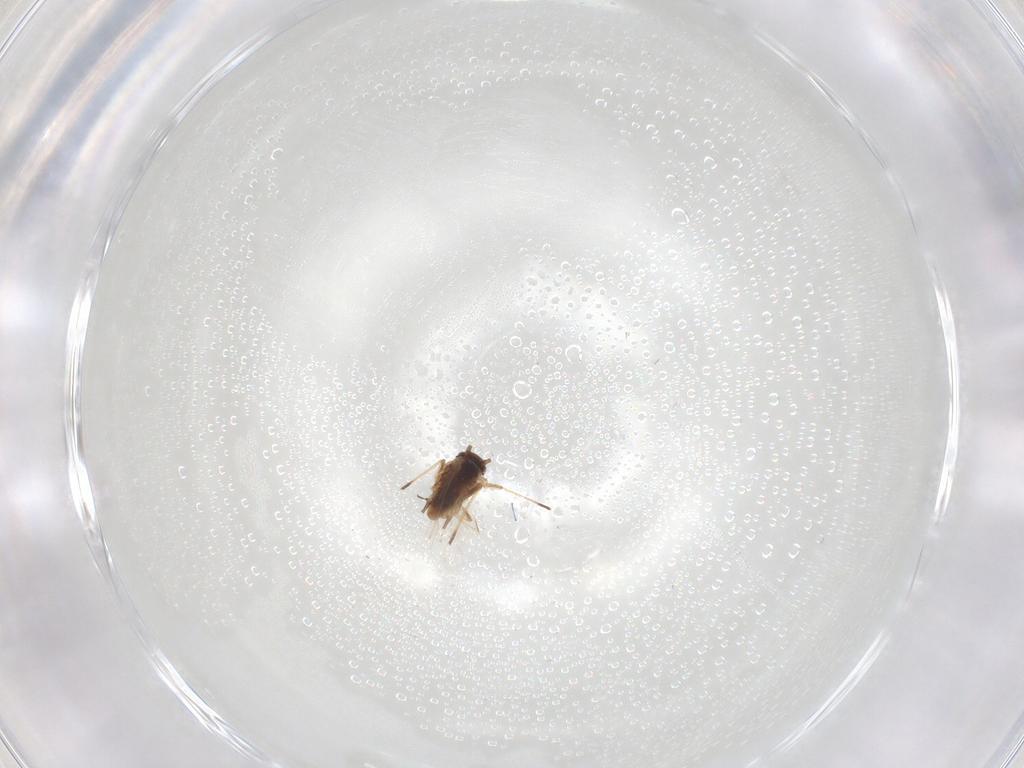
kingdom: Animalia
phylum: Arthropoda
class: Insecta
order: Hemiptera
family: Aphididae
